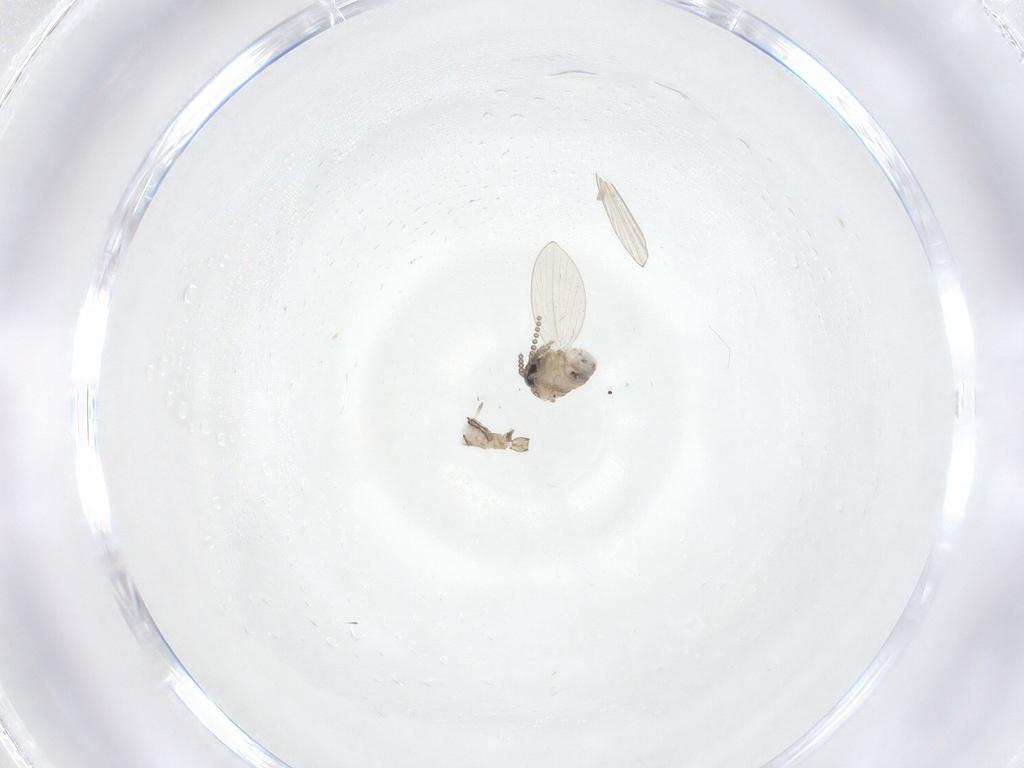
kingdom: Animalia
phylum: Arthropoda
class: Insecta
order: Diptera
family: Psychodidae
